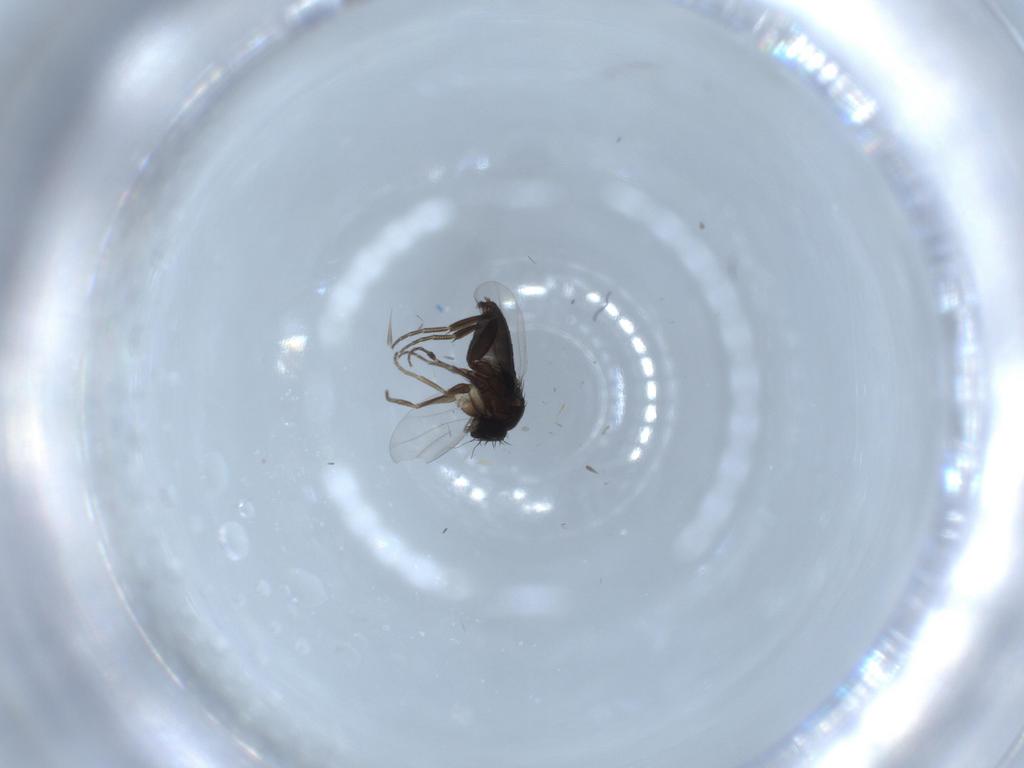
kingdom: Animalia
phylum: Arthropoda
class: Insecta
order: Diptera
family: Phoridae
